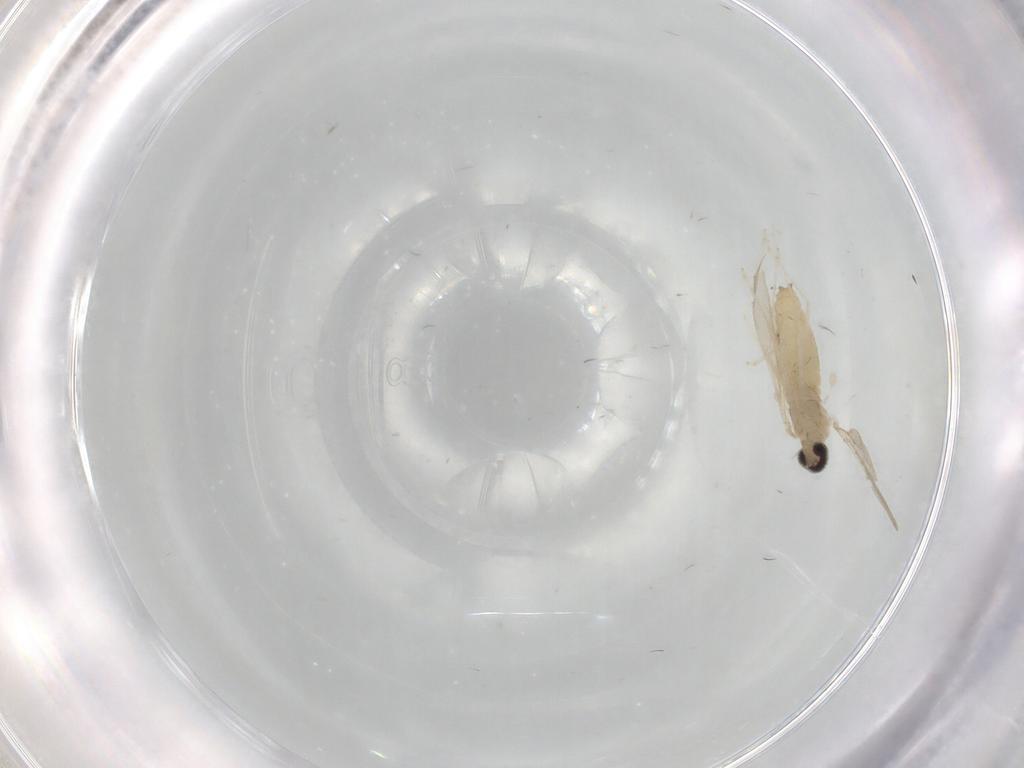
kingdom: Animalia
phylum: Arthropoda
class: Insecta
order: Diptera
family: Cecidomyiidae
